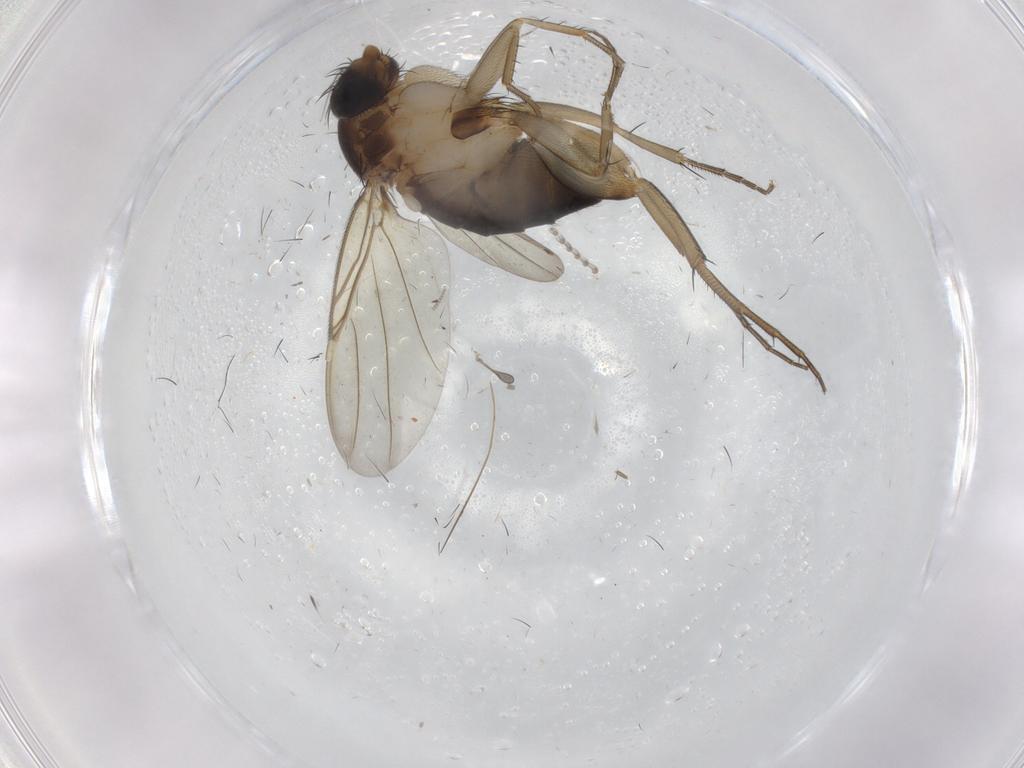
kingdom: Animalia
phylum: Arthropoda
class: Insecta
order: Diptera
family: Phoridae
